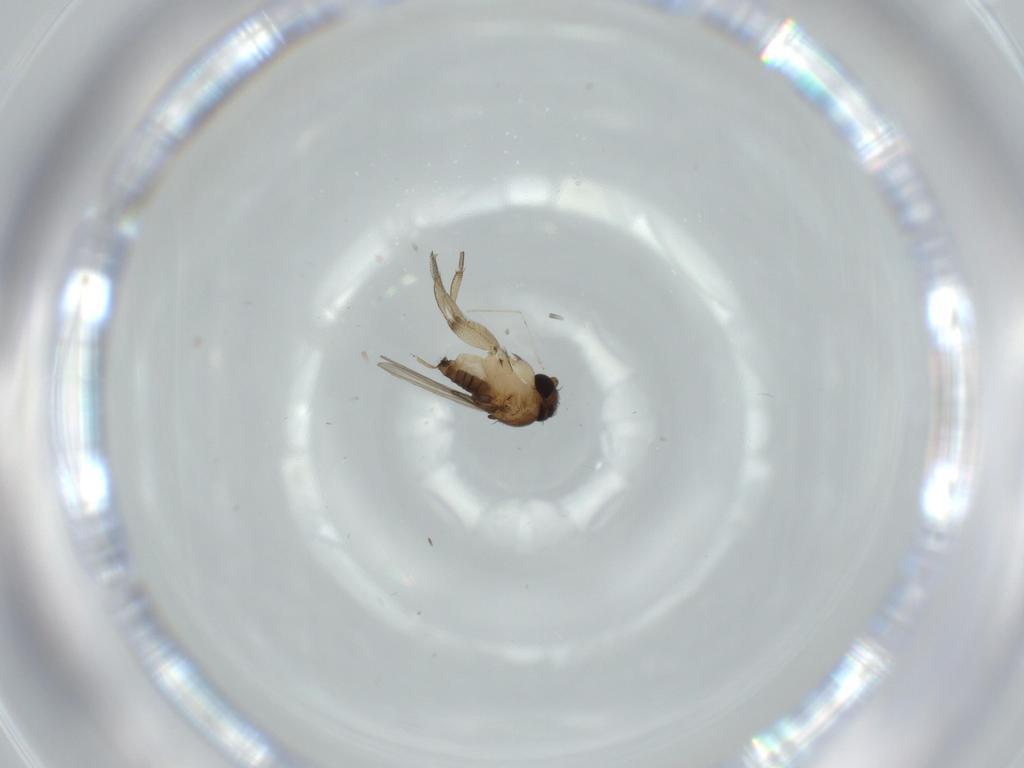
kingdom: Animalia
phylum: Arthropoda
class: Insecta
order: Diptera
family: Cecidomyiidae
